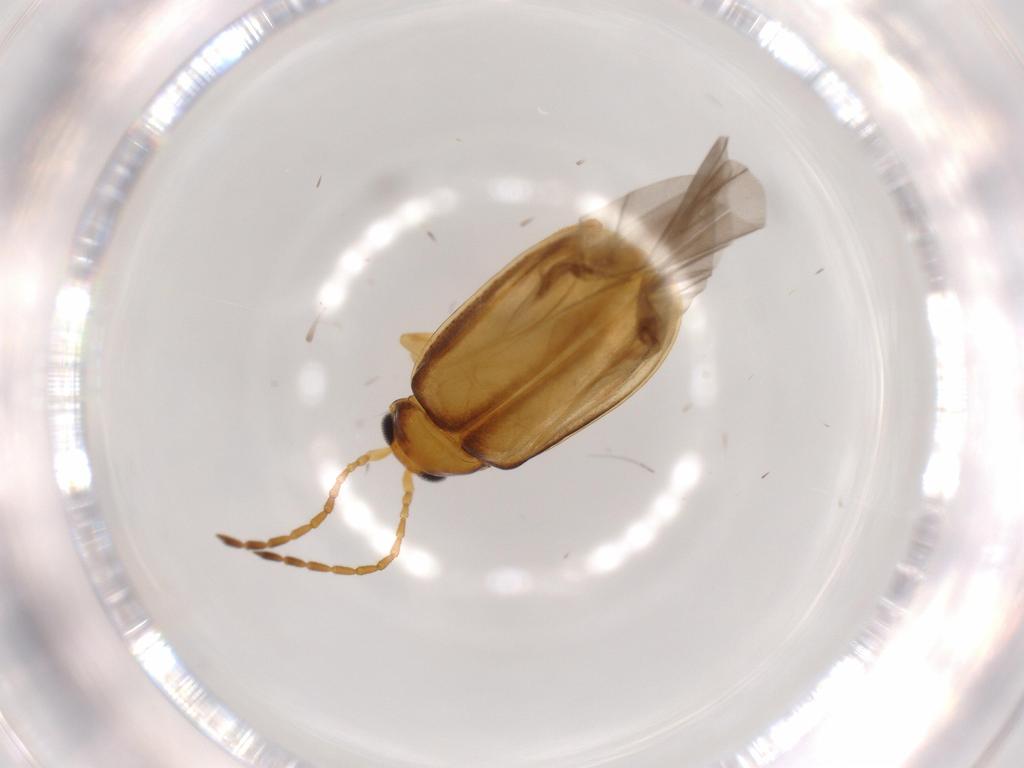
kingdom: Animalia
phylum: Arthropoda
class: Insecta
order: Coleoptera
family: Chrysomelidae
